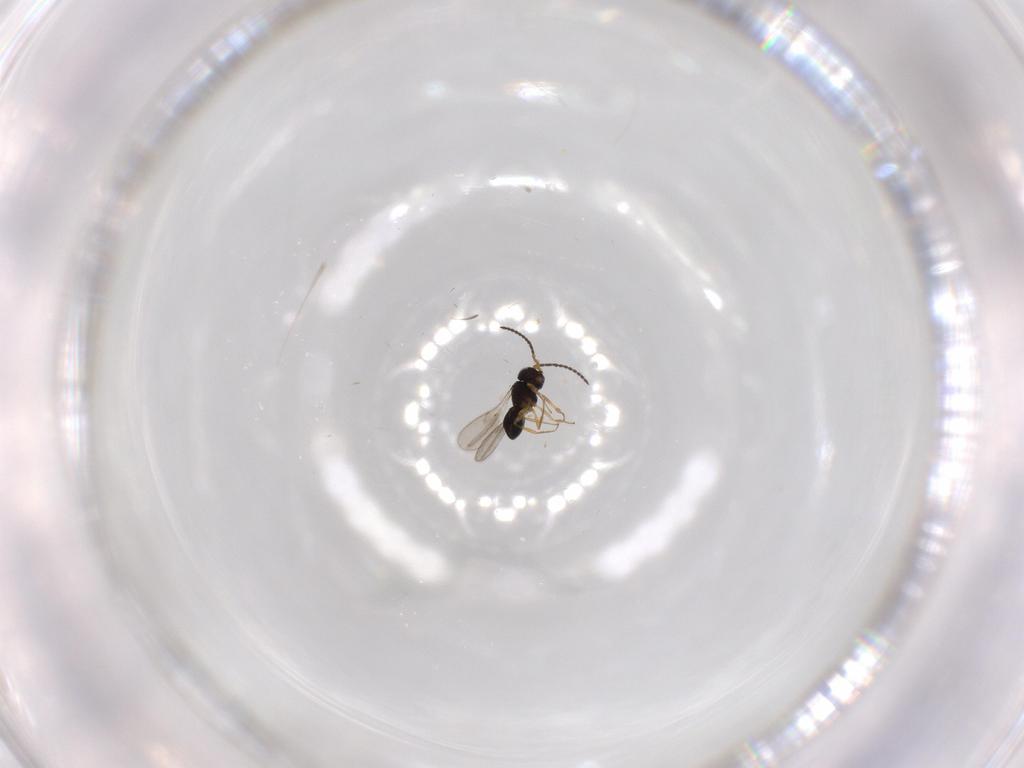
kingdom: Animalia
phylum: Arthropoda
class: Insecta
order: Hymenoptera
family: Scelionidae
